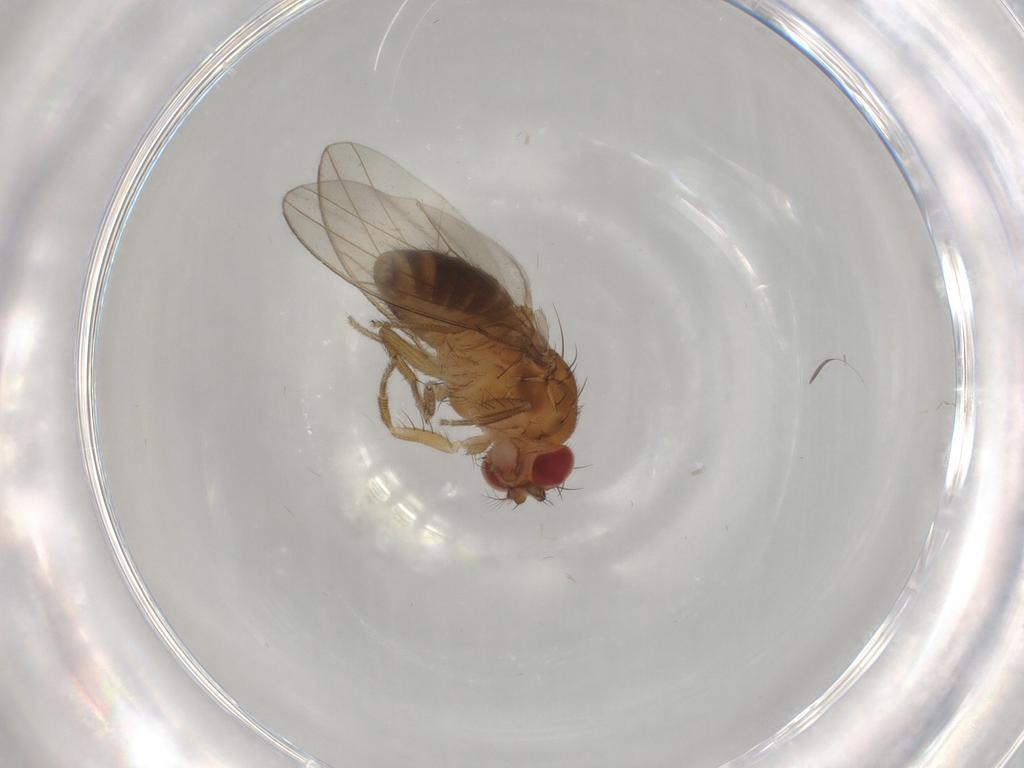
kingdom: Animalia
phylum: Arthropoda
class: Insecta
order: Diptera
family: Drosophilidae
